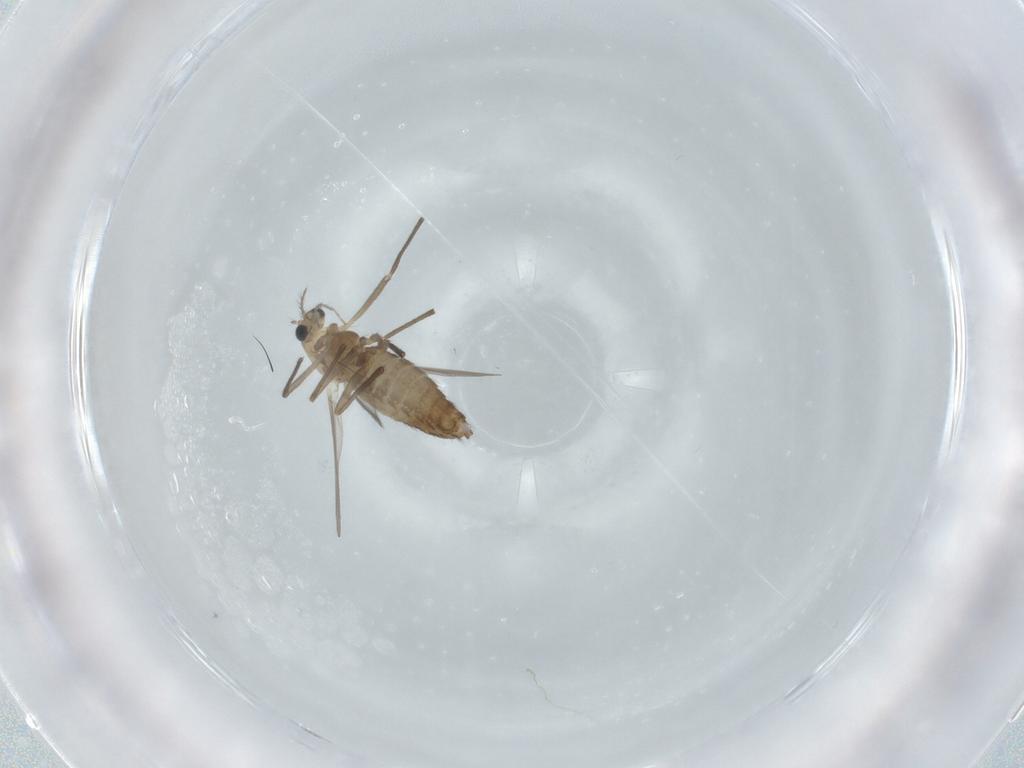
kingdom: Animalia
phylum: Arthropoda
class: Insecta
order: Diptera
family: Chironomidae
